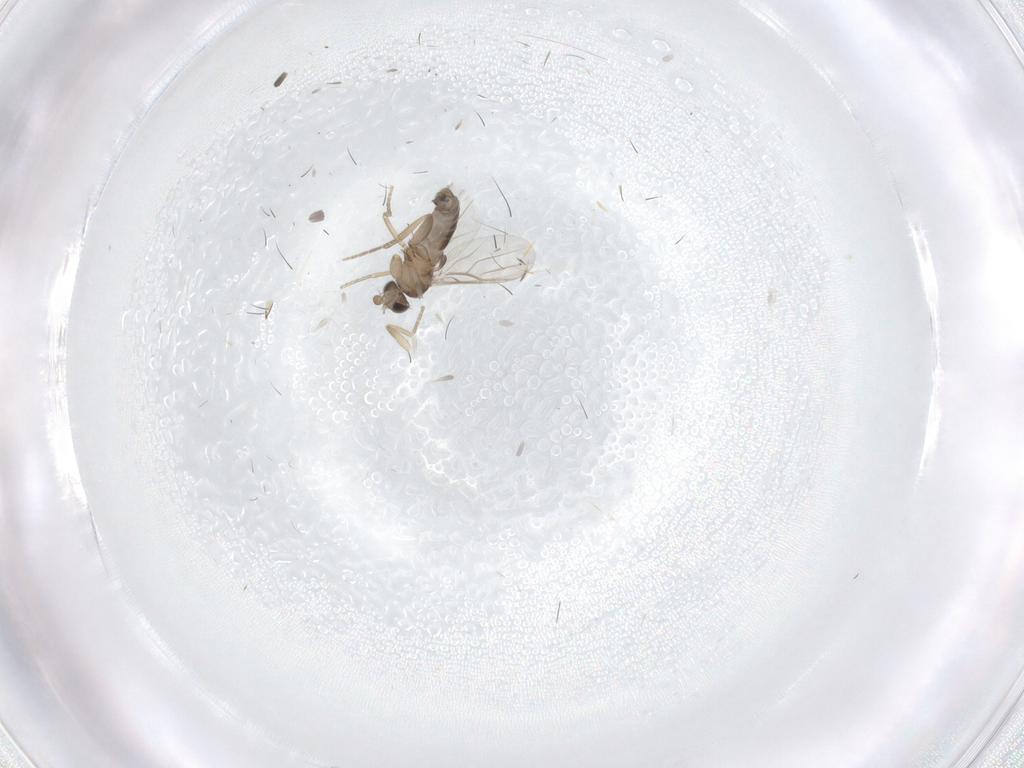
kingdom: Animalia
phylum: Arthropoda
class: Insecta
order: Diptera
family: Phoridae
